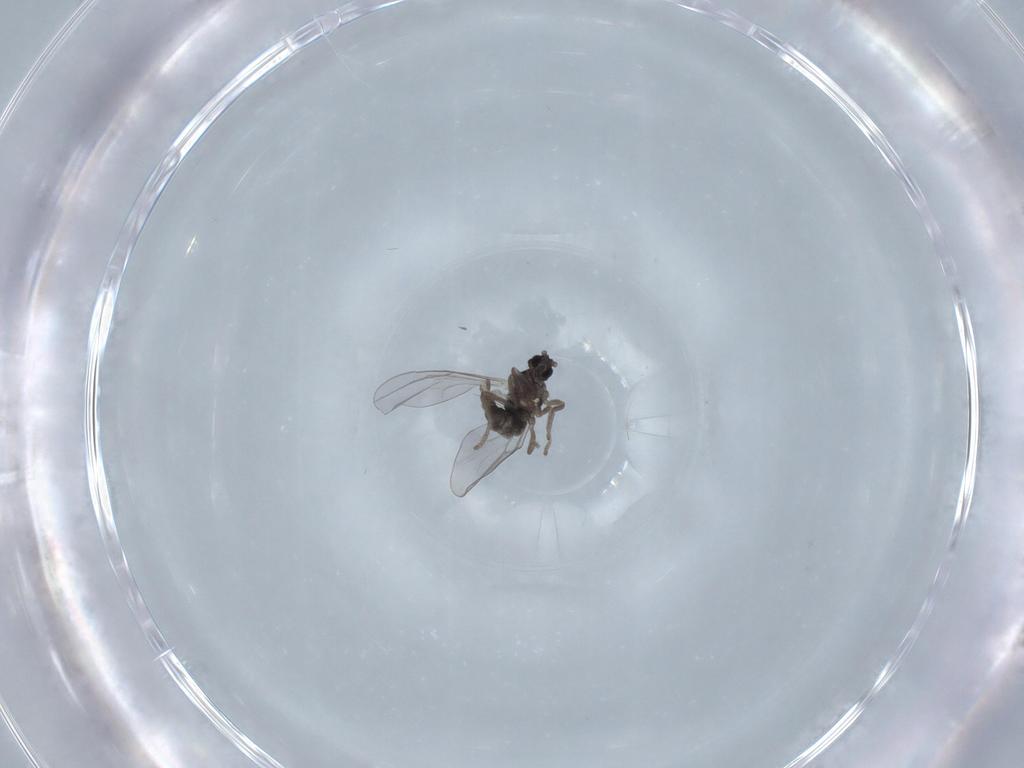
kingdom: Animalia
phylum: Arthropoda
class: Insecta
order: Diptera
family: Cecidomyiidae
